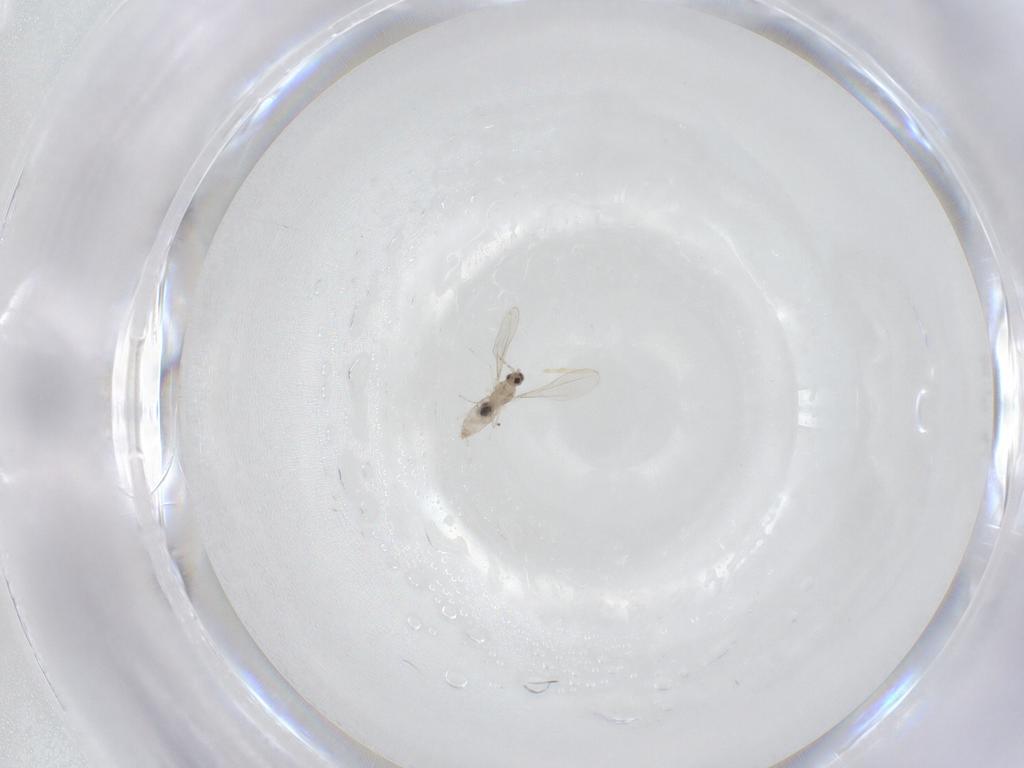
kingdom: Animalia
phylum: Arthropoda
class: Insecta
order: Diptera
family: Cecidomyiidae
